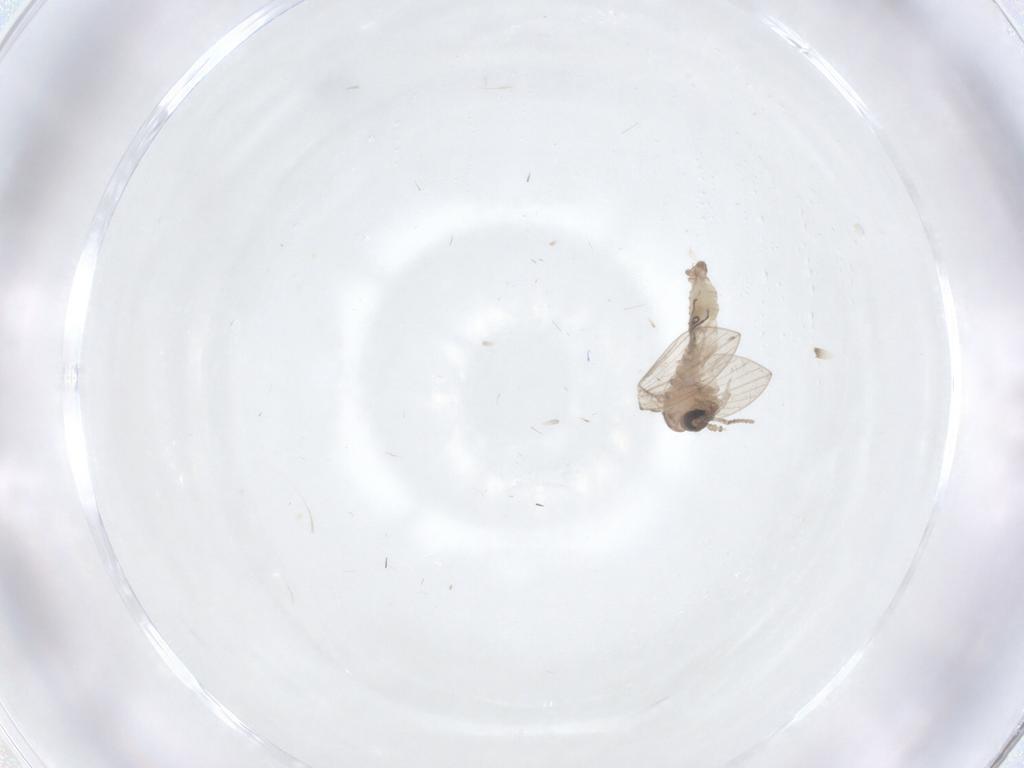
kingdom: Animalia
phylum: Arthropoda
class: Insecta
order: Diptera
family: Psychodidae
